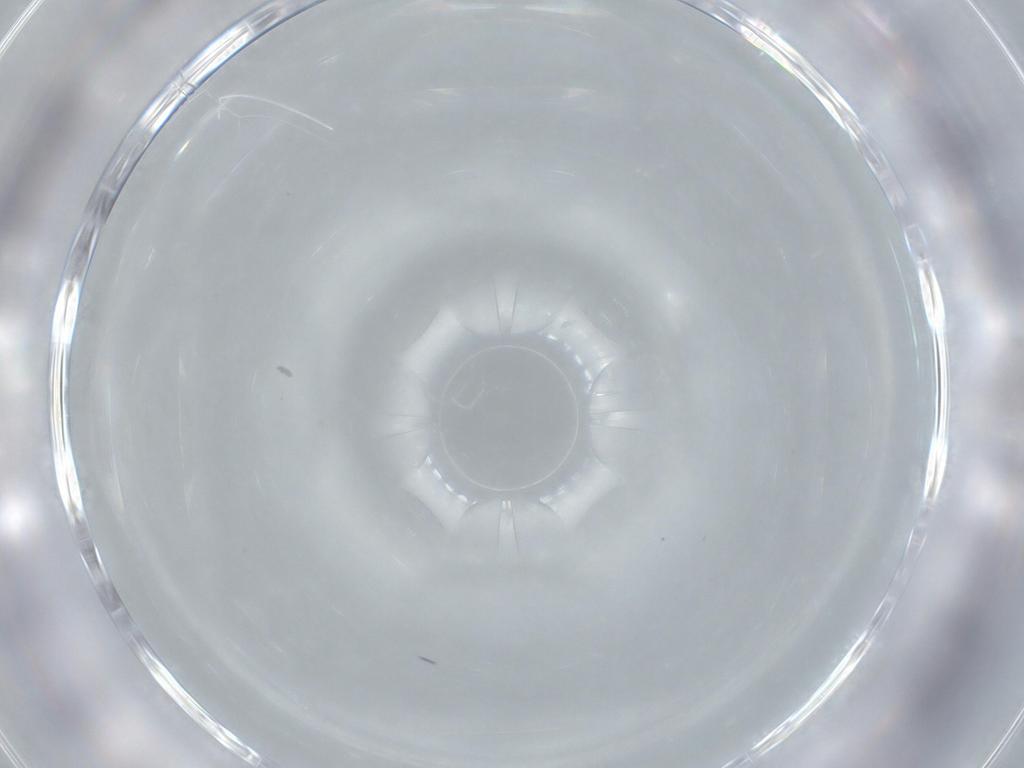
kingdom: Animalia
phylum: Arthropoda
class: Insecta
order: Diptera
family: Cecidomyiidae
